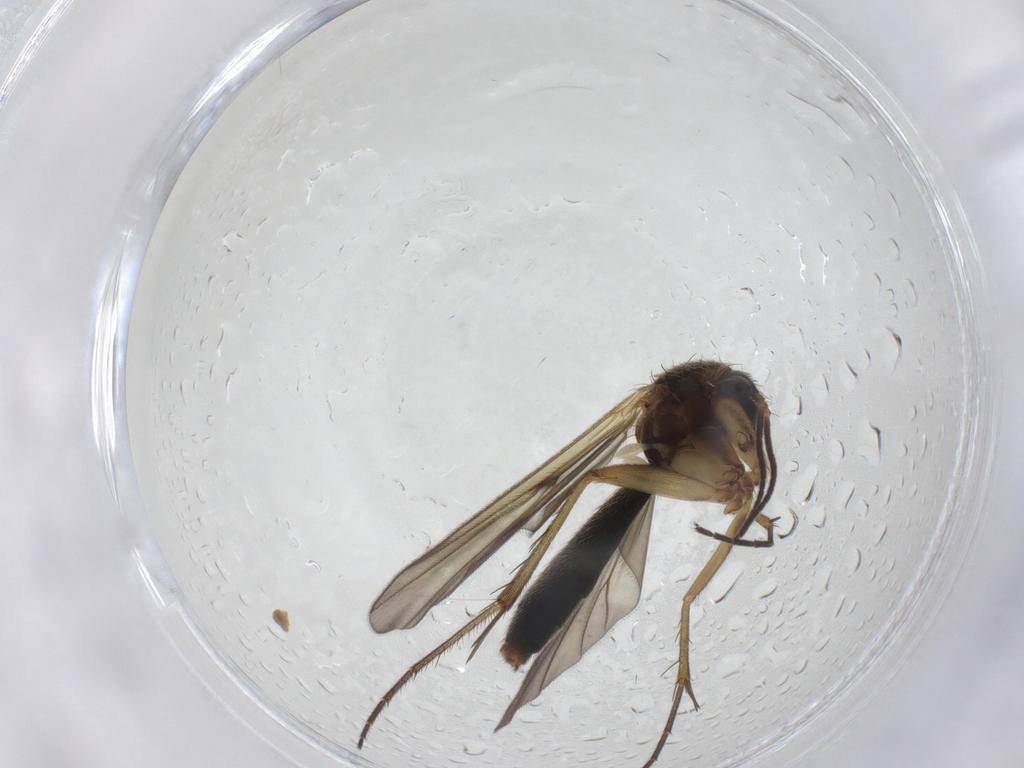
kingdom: Animalia
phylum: Arthropoda
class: Insecta
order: Diptera
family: Mycetophilidae
